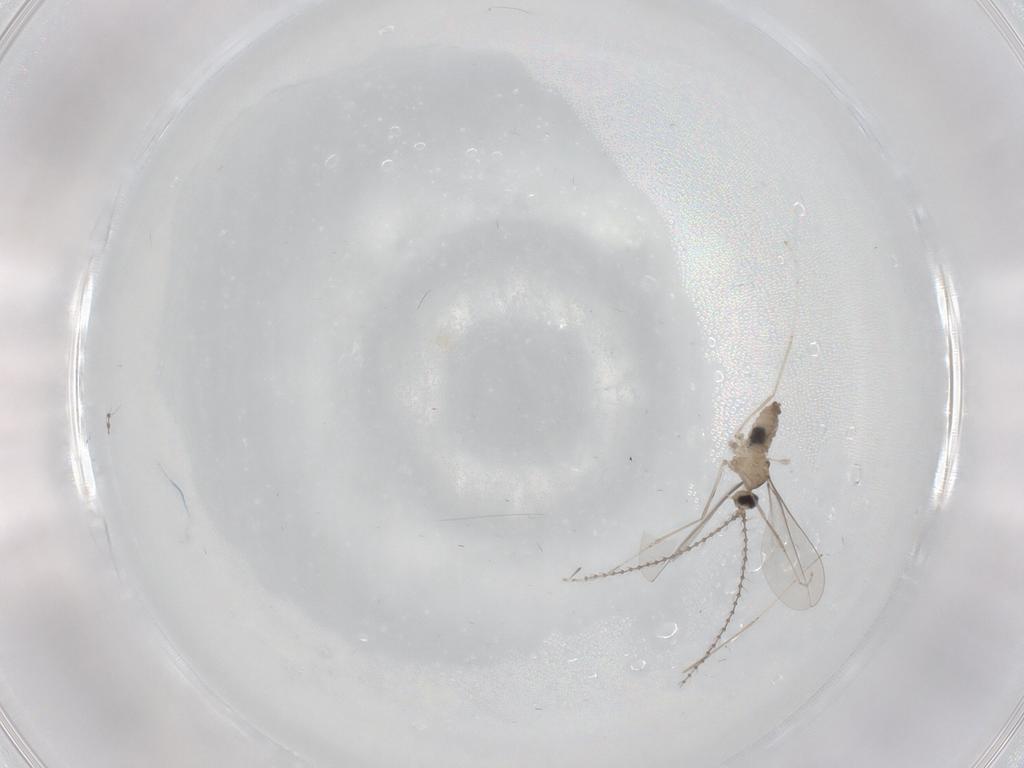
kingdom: Animalia
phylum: Arthropoda
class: Insecta
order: Diptera
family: Cecidomyiidae
